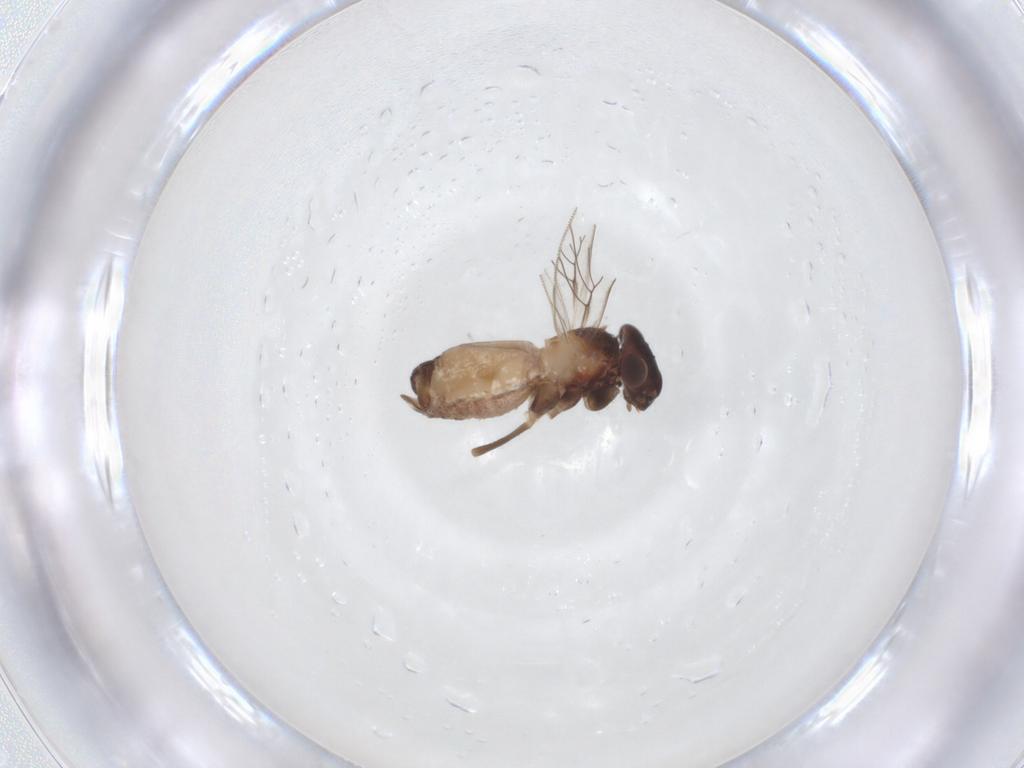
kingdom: Animalia
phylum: Arthropoda
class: Insecta
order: Psocodea
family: Lepidopsocidae
